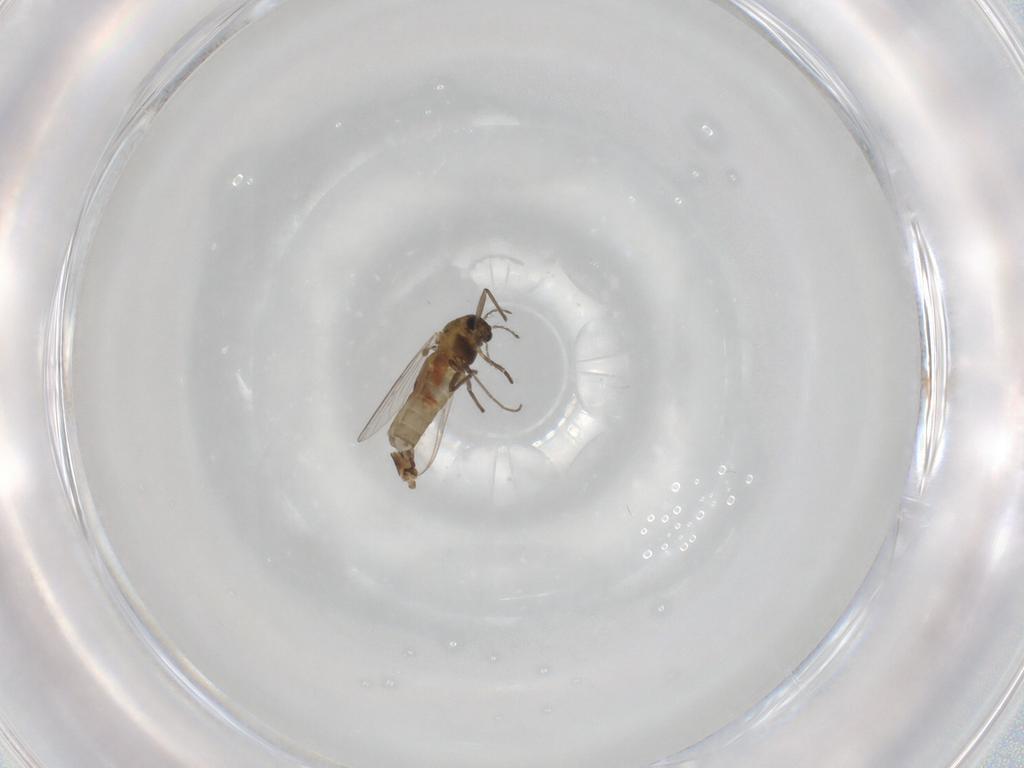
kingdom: Animalia
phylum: Arthropoda
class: Insecta
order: Diptera
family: Chironomidae
